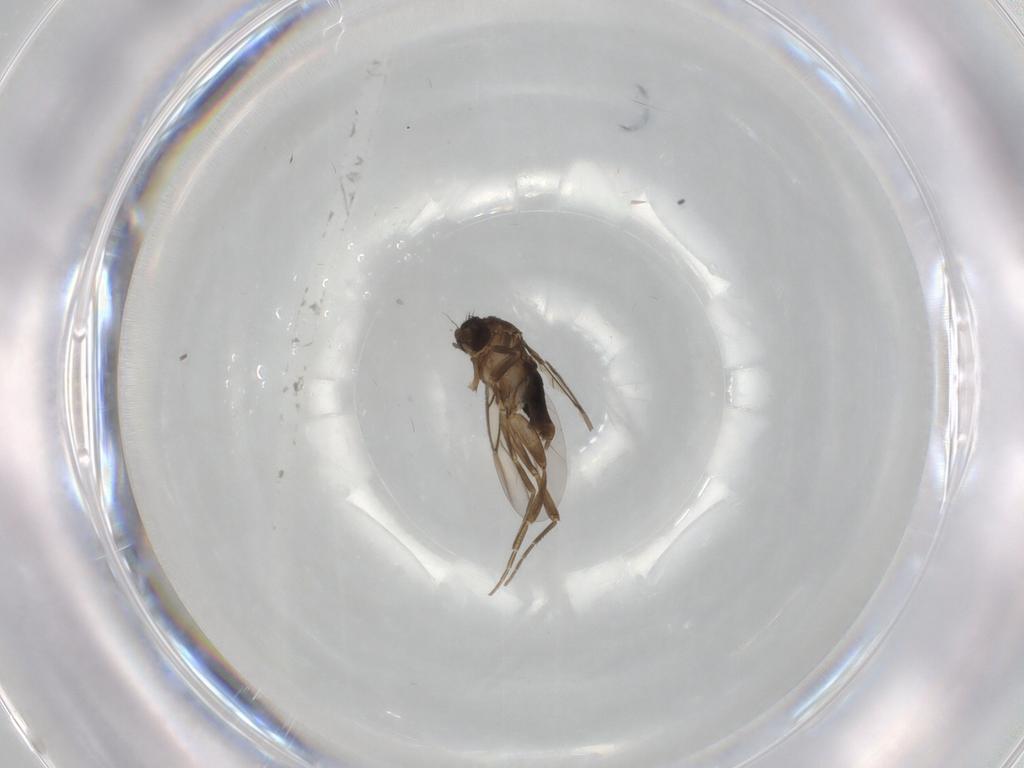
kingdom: Animalia
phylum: Arthropoda
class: Insecta
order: Diptera
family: Phoridae
